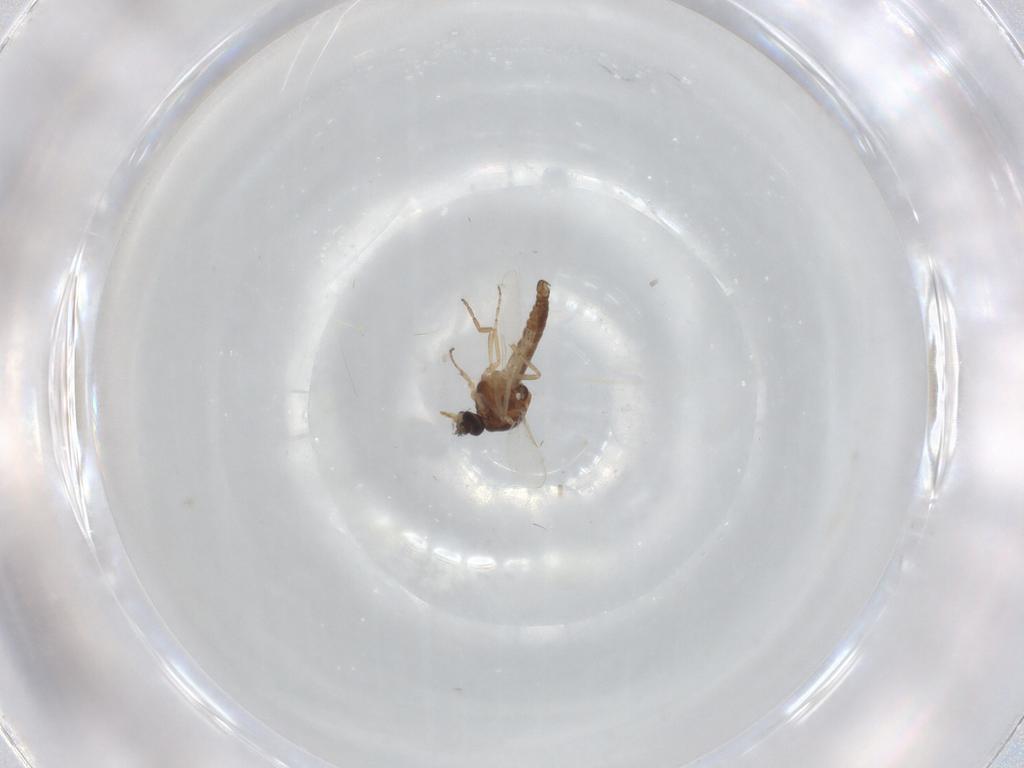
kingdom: Animalia
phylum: Arthropoda
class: Insecta
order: Diptera
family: Ceratopogonidae
